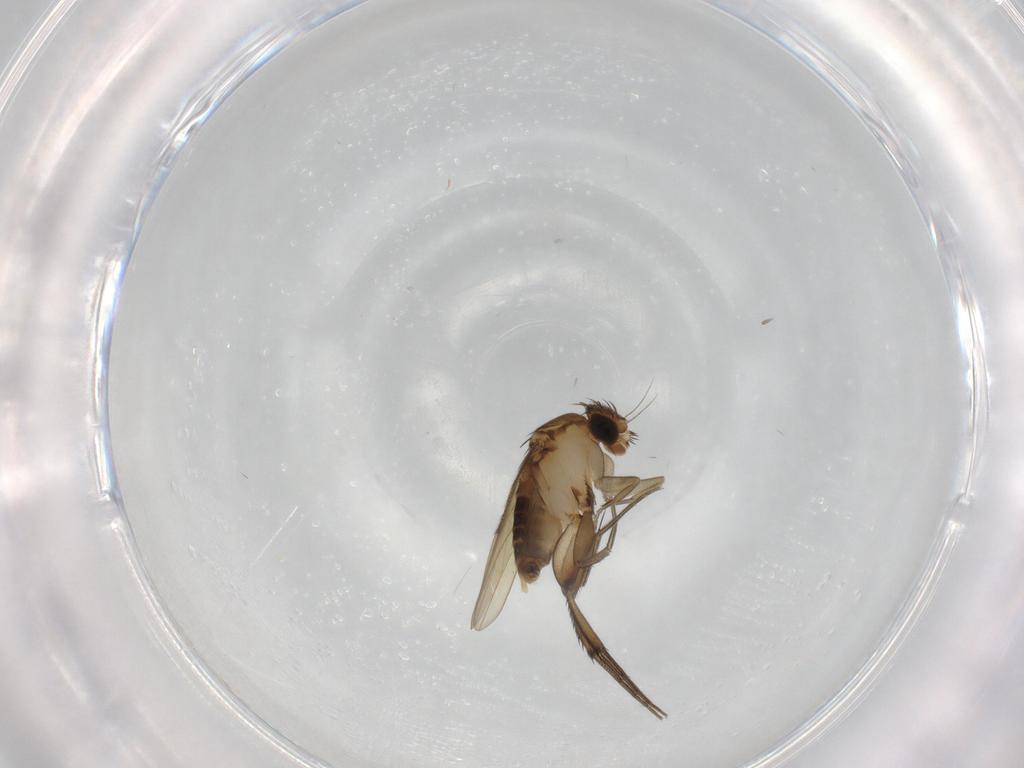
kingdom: Animalia
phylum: Arthropoda
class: Insecta
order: Diptera
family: Phoridae
